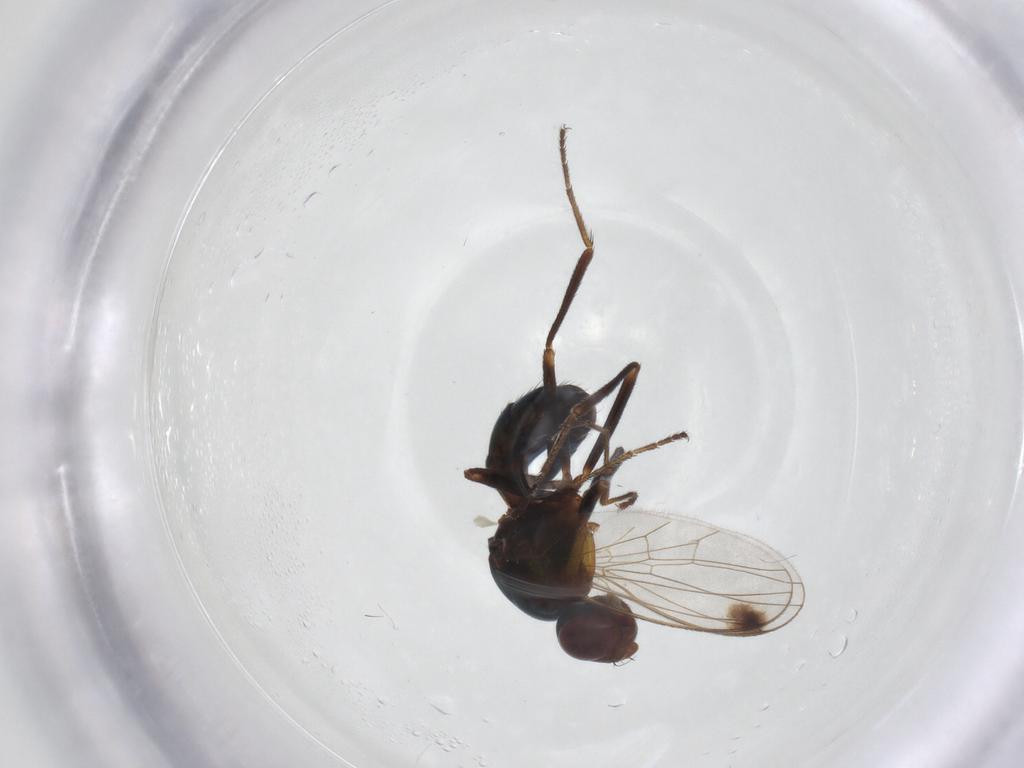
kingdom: Animalia
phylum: Arthropoda
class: Insecta
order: Diptera
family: Sepsidae
